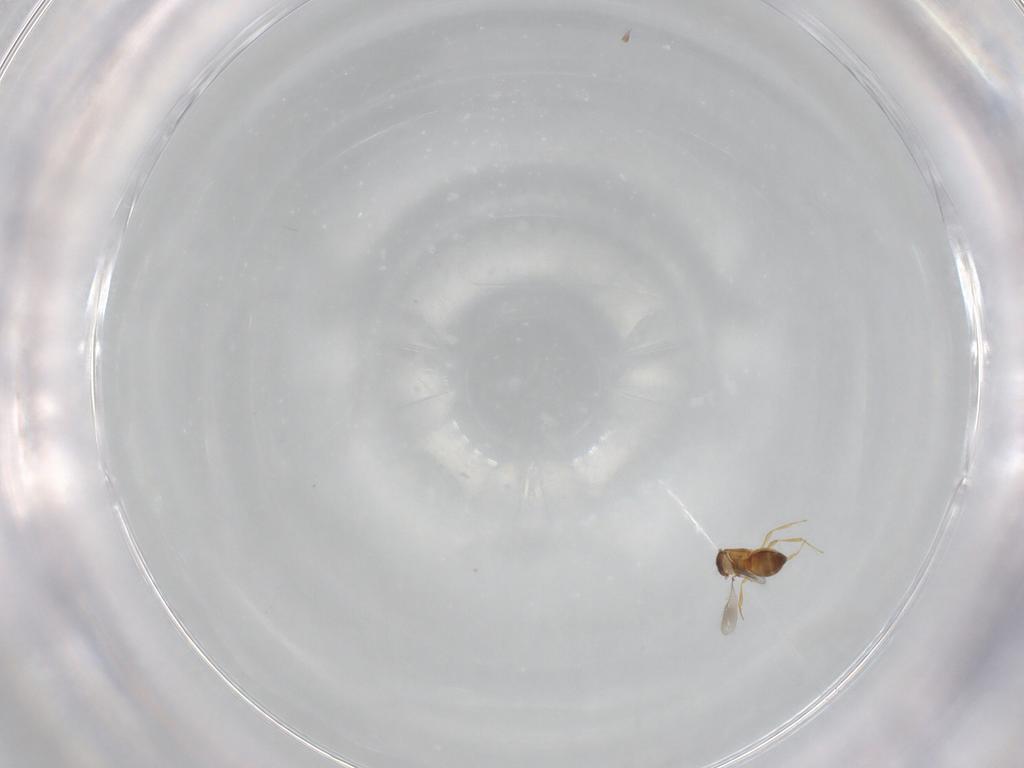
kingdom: Animalia
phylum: Arthropoda
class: Insecta
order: Hymenoptera
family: Scelionidae
